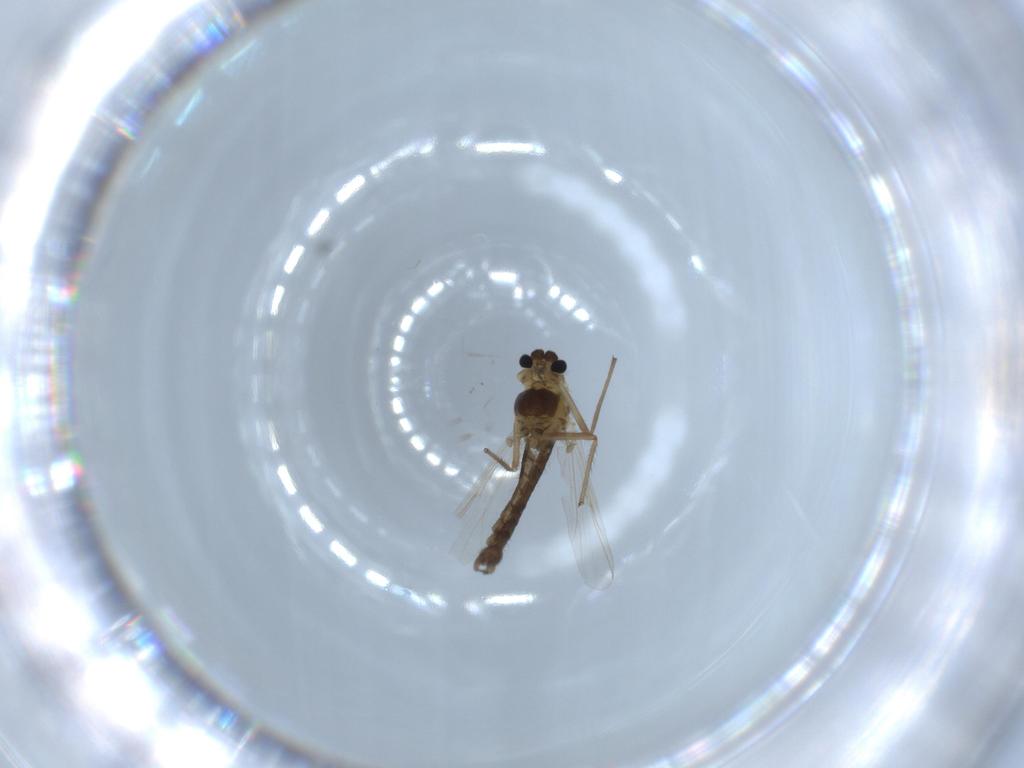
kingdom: Animalia
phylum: Arthropoda
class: Insecta
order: Diptera
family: Chironomidae
